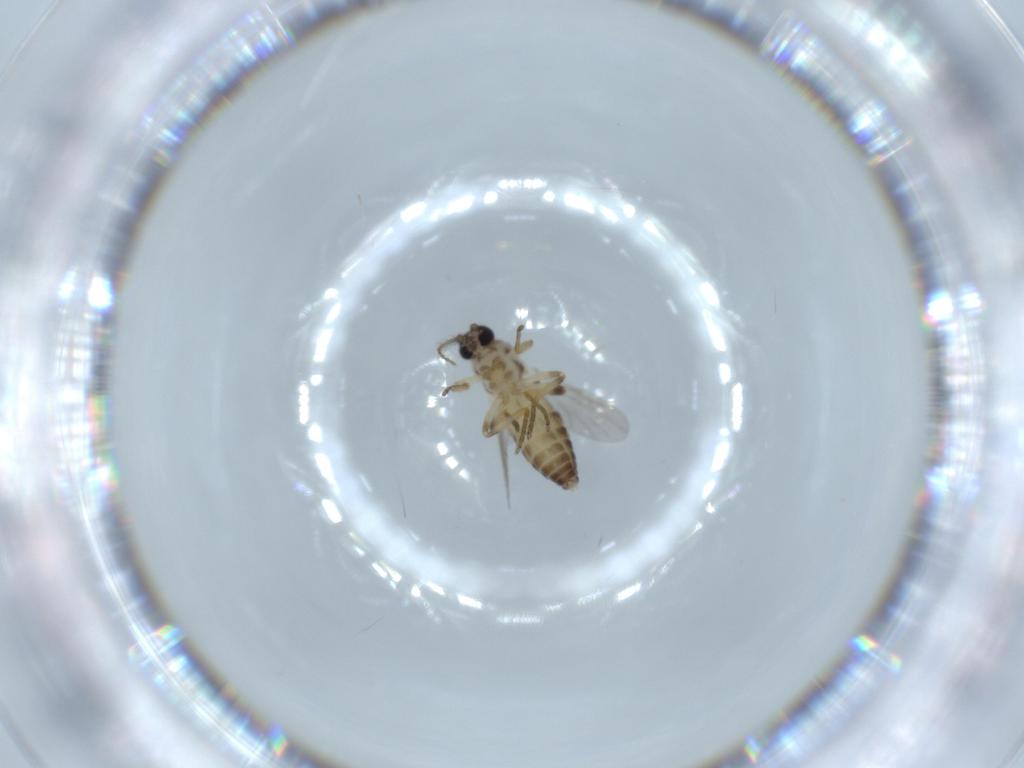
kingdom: Animalia
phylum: Arthropoda
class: Insecta
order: Diptera
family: Ceratopogonidae
